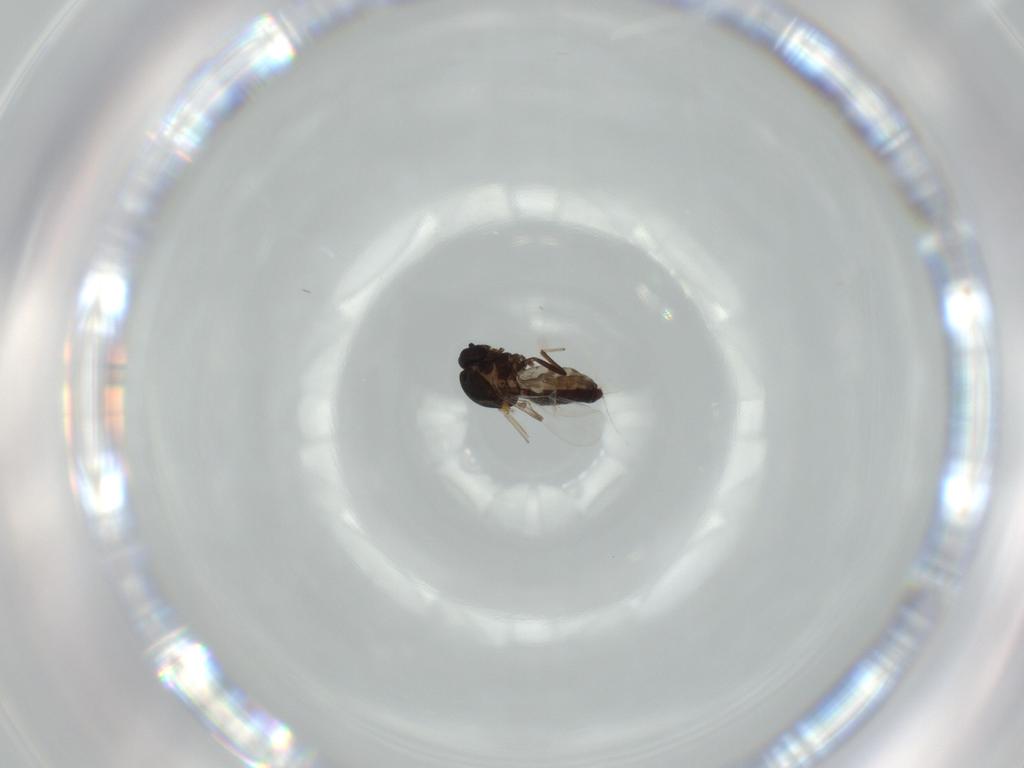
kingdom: Animalia
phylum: Arthropoda
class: Insecta
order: Diptera
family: Ceratopogonidae
